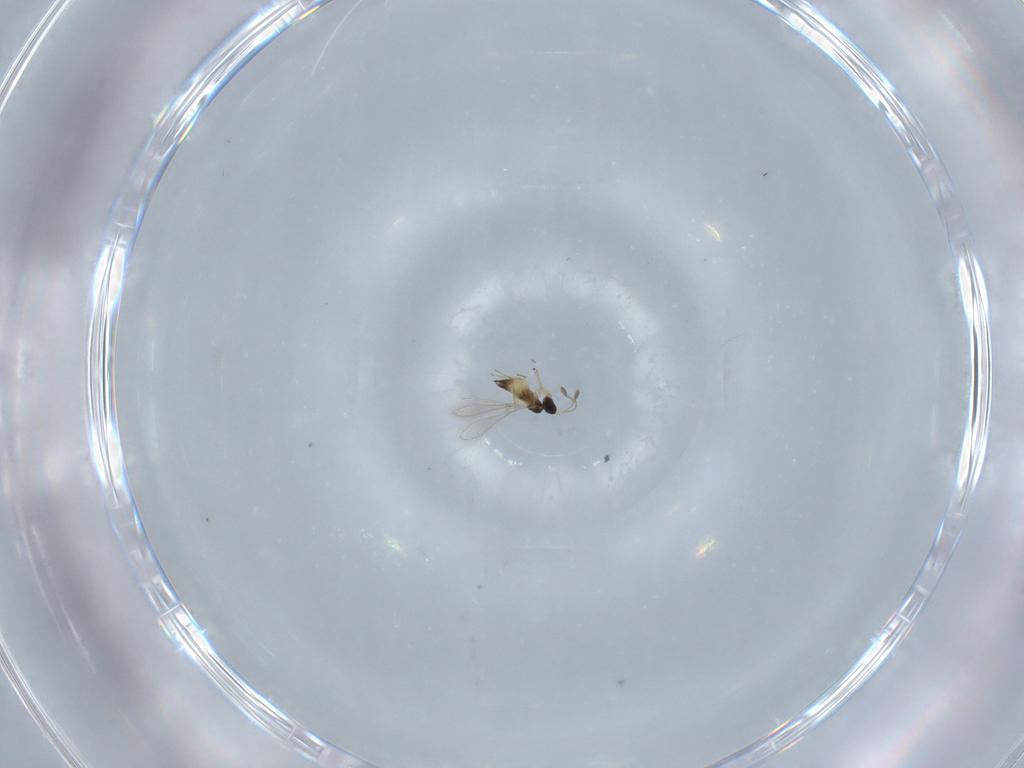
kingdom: Animalia
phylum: Arthropoda
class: Insecta
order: Hymenoptera
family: Mymaridae
